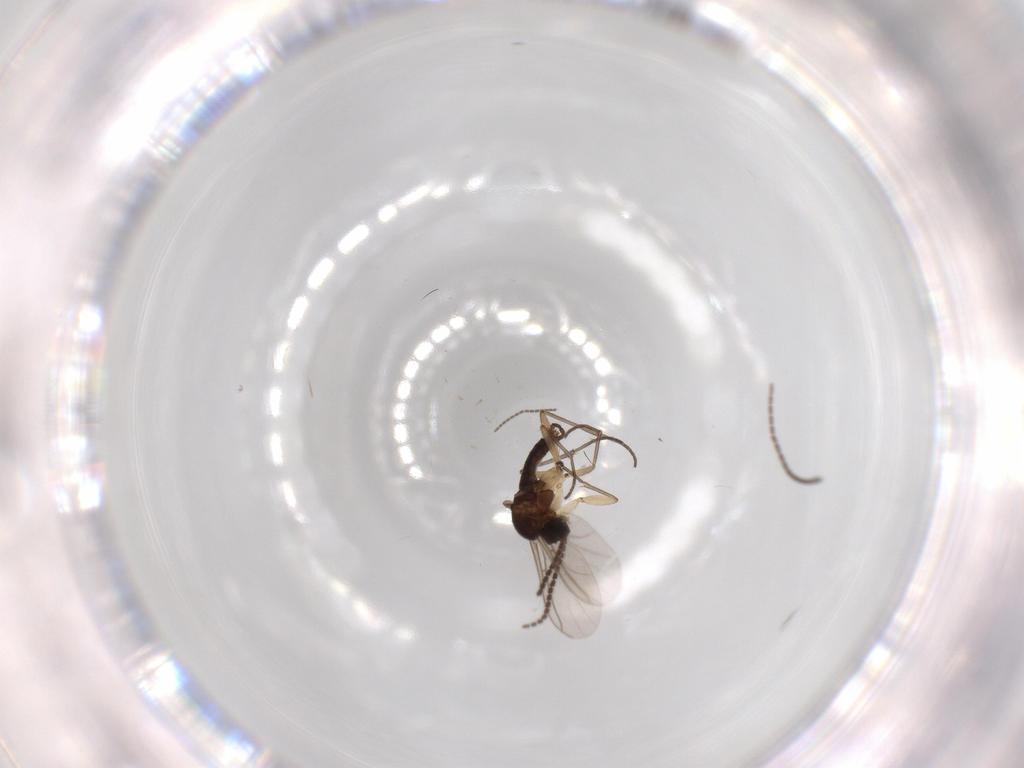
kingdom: Animalia
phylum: Arthropoda
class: Insecta
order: Diptera
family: Sciaridae
